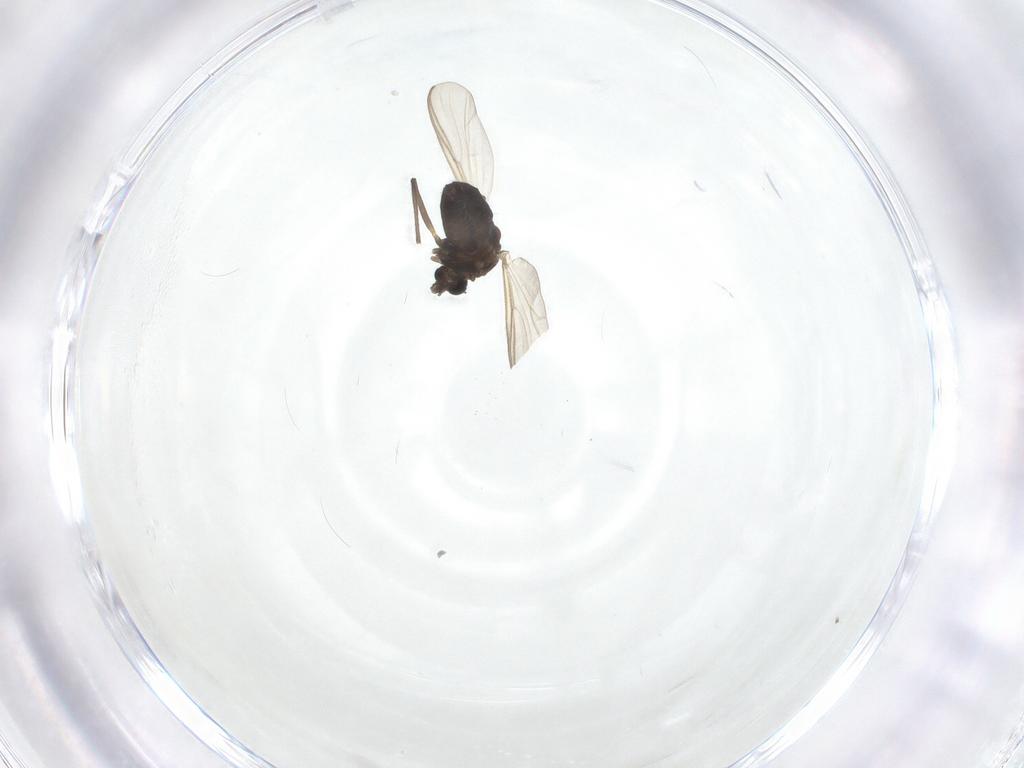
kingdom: Animalia
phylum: Arthropoda
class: Insecta
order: Diptera
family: Chironomidae
